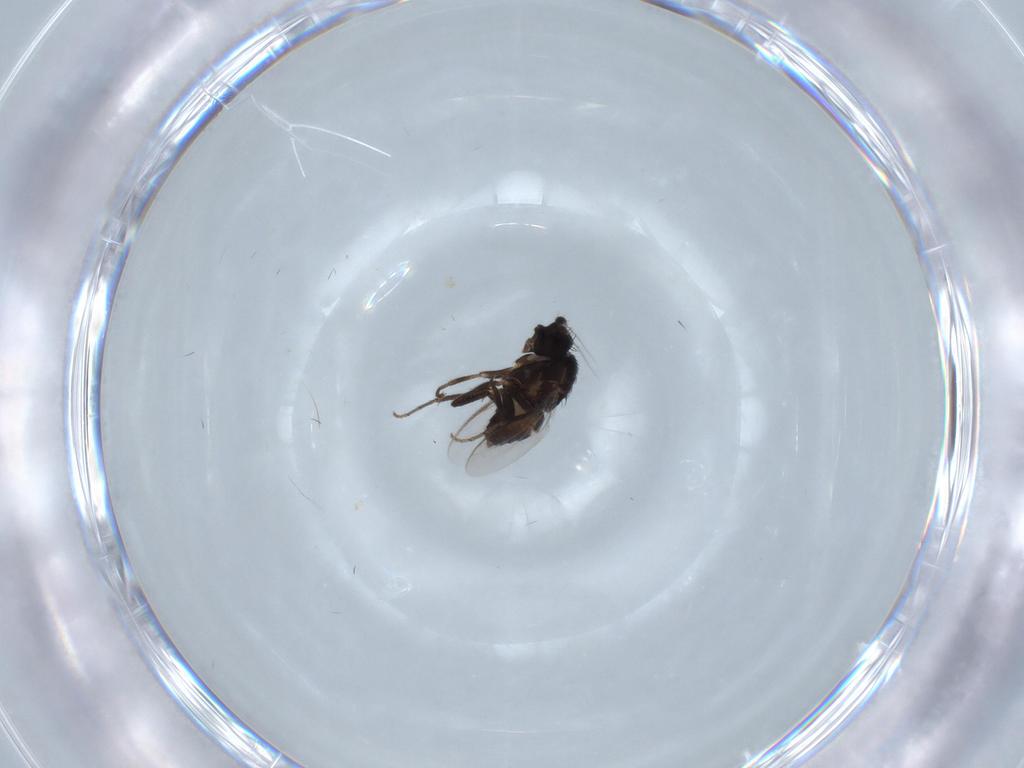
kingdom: Animalia
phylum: Arthropoda
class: Insecta
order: Diptera
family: Sphaeroceridae
